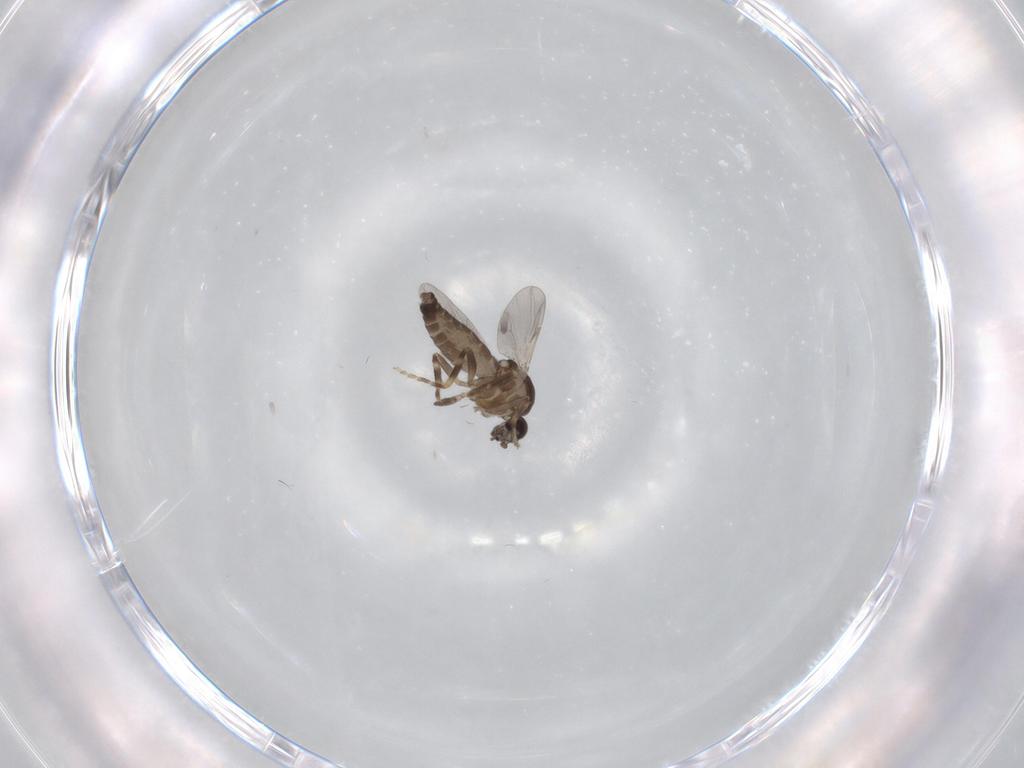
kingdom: Animalia
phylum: Arthropoda
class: Insecta
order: Diptera
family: Ceratopogonidae
